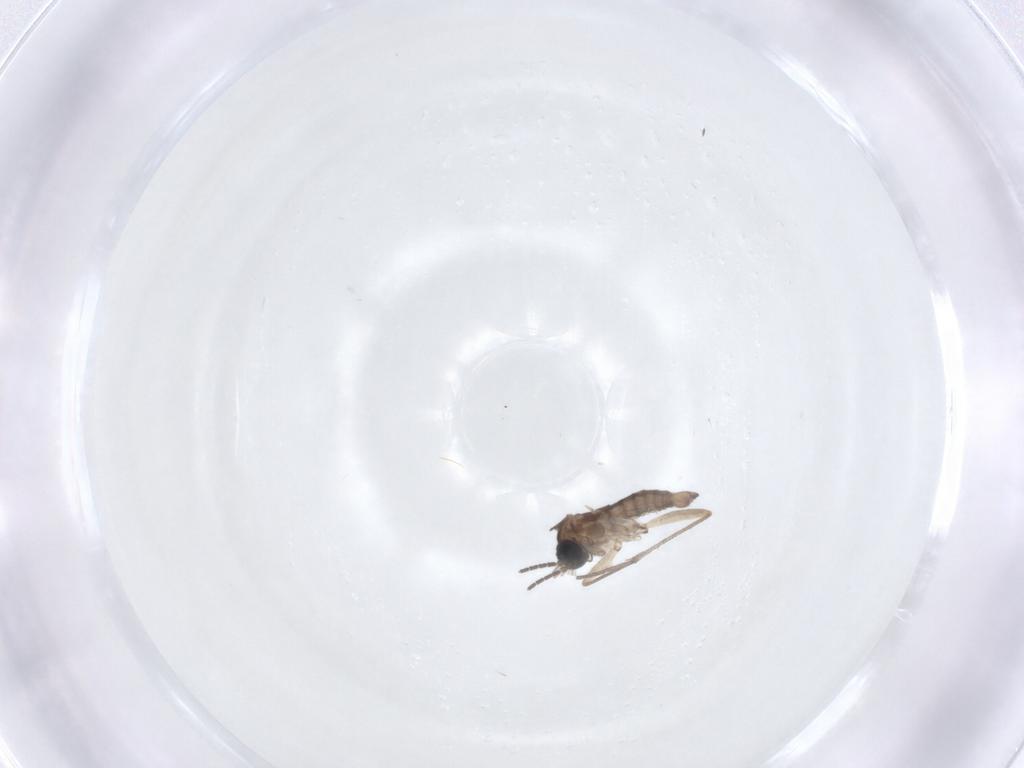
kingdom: Animalia
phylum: Arthropoda
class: Insecta
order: Diptera
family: Sciaridae
